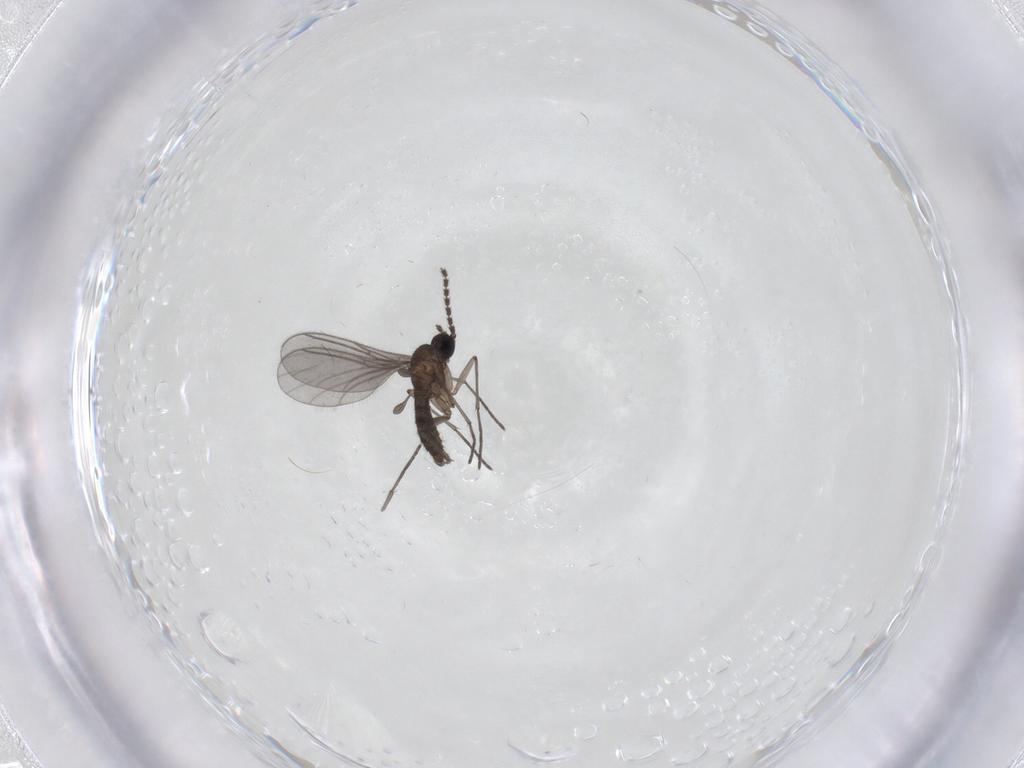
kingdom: Animalia
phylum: Arthropoda
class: Insecta
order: Diptera
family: Sciaridae
